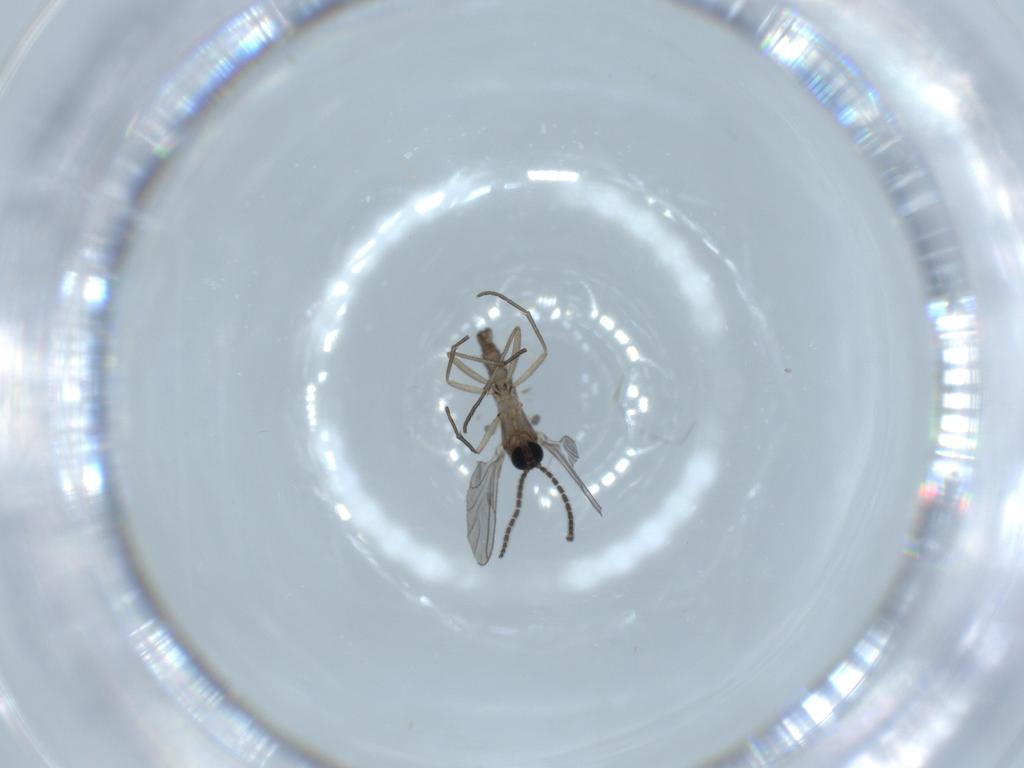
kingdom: Animalia
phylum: Arthropoda
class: Insecta
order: Diptera
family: Sciaridae
